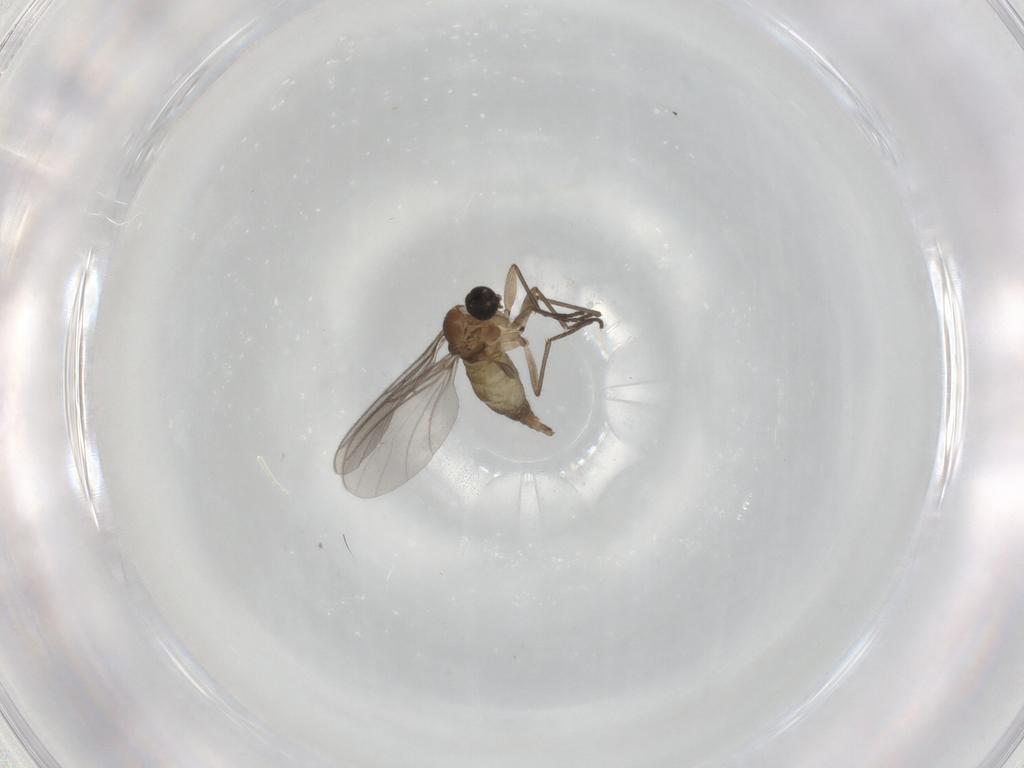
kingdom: Animalia
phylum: Arthropoda
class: Insecta
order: Diptera
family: Sciaridae
